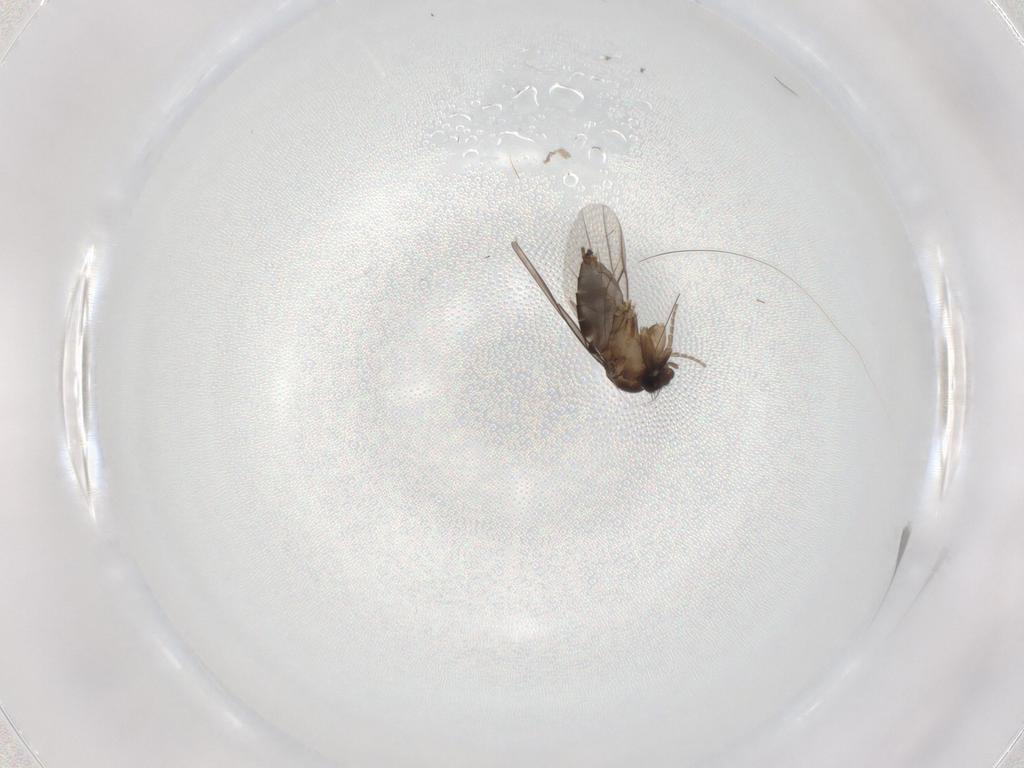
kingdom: Animalia
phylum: Arthropoda
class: Insecta
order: Diptera
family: Phoridae
